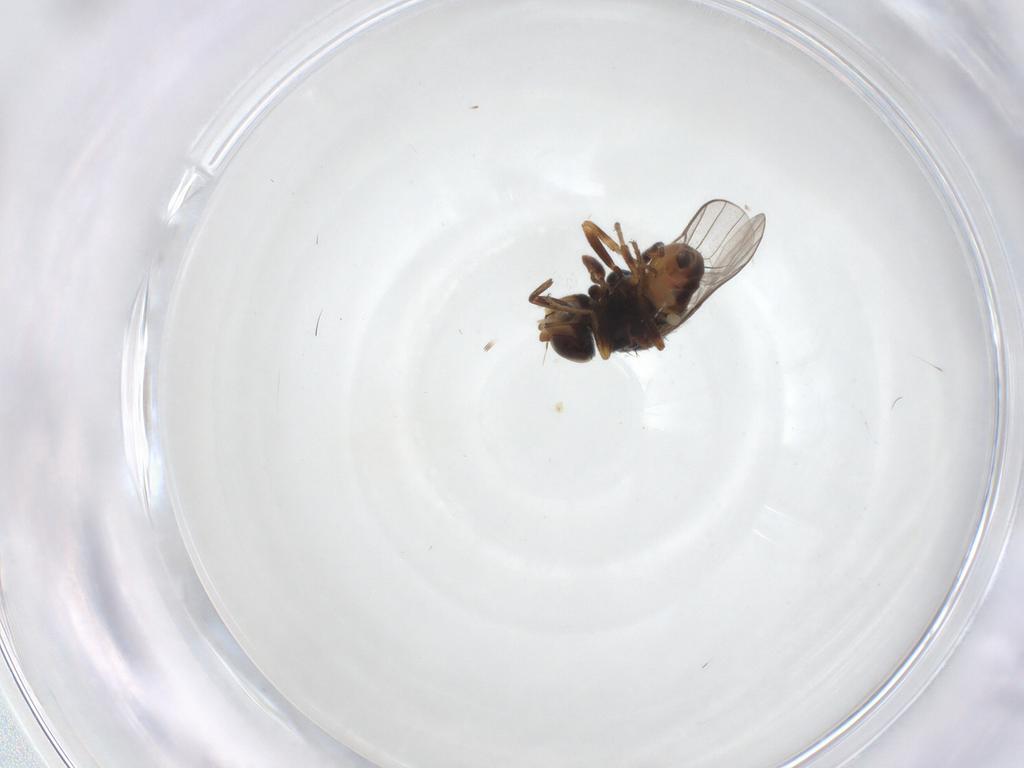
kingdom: Animalia
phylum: Arthropoda
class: Insecta
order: Diptera
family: Chloropidae
